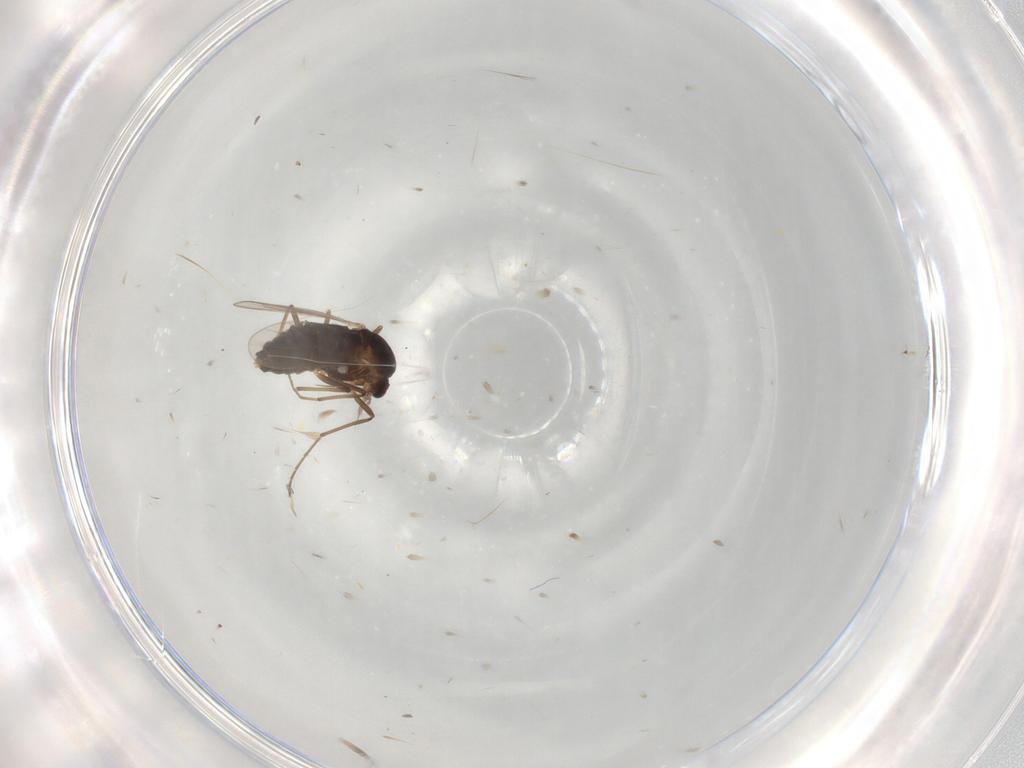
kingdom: Animalia
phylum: Arthropoda
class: Insecta
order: Diptera
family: Chironomidae
